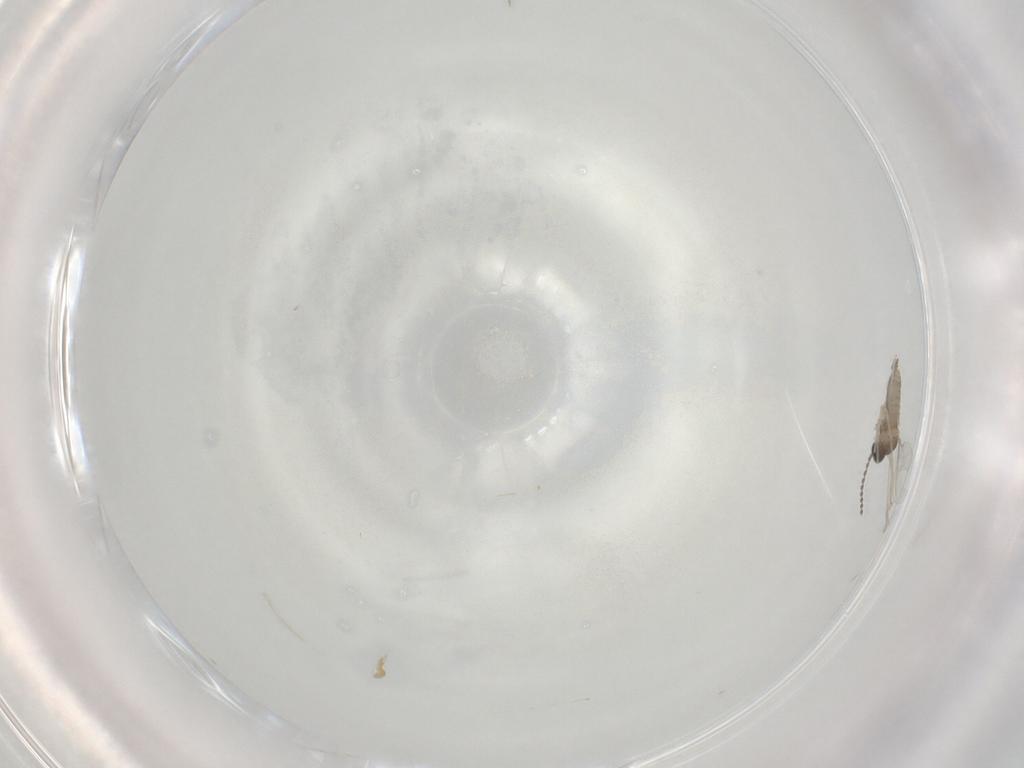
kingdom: Animalia
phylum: Arthropoda
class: Insecta
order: Diptera
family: Cecidomyiidae
